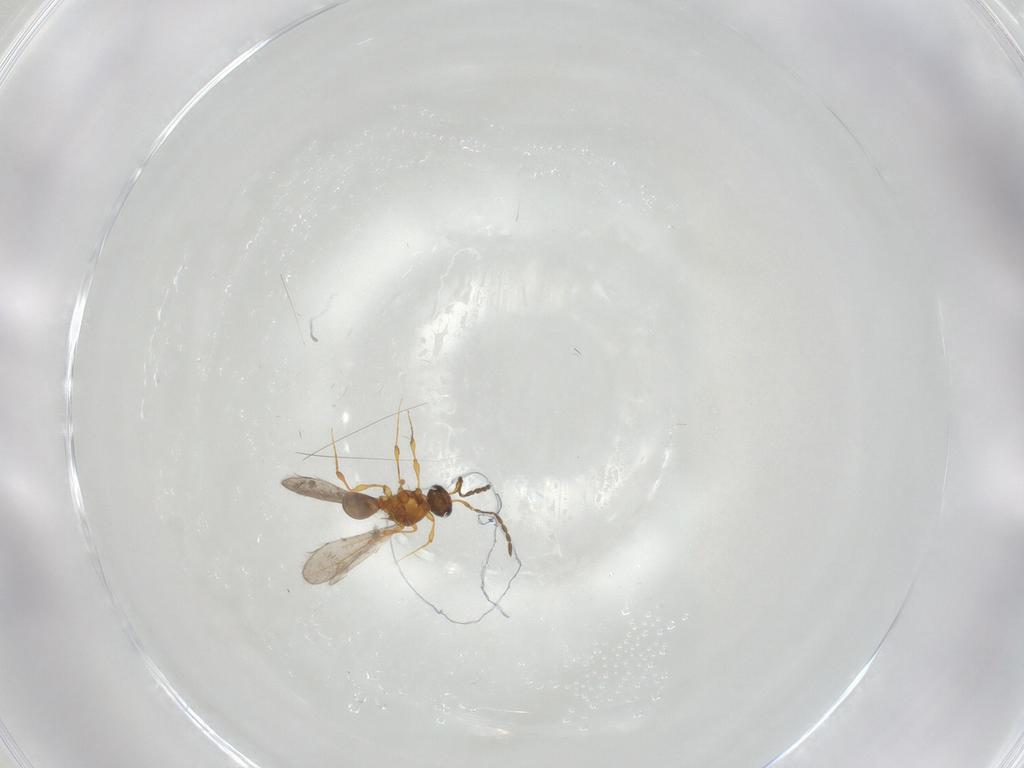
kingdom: Animalia
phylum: Arthropoda
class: Insecta
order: Hymenoptera
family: Platygastridae
